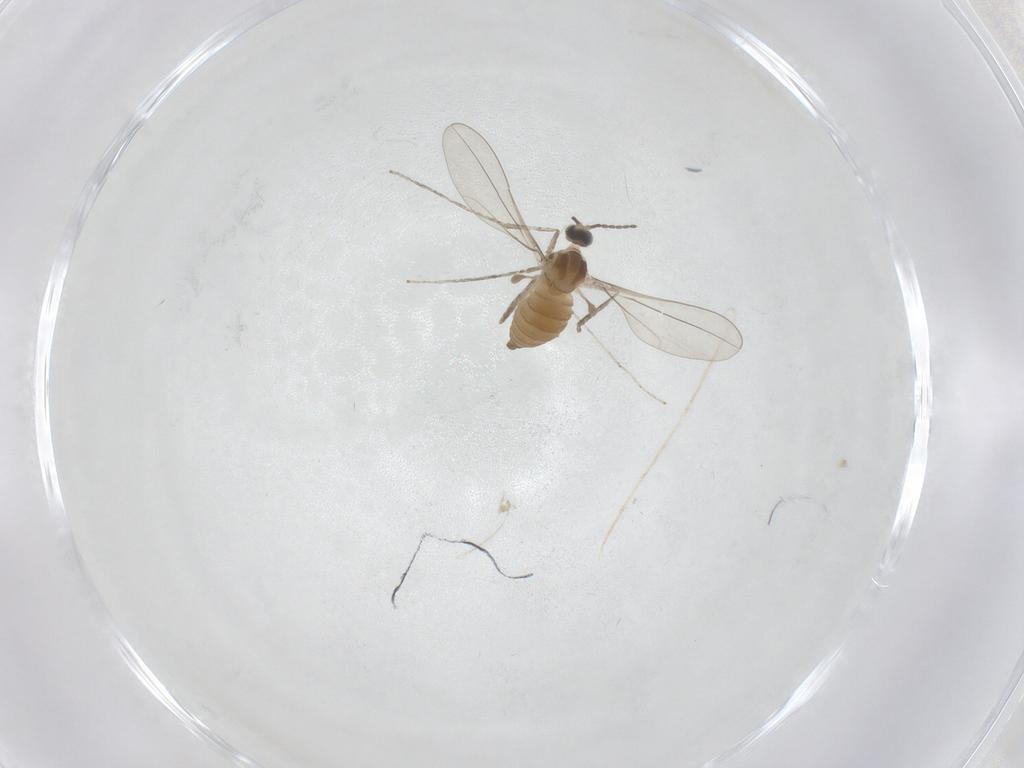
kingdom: Animalia
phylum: Arthropoda
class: Insecta
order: Diptera
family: Cecidomyiidae
